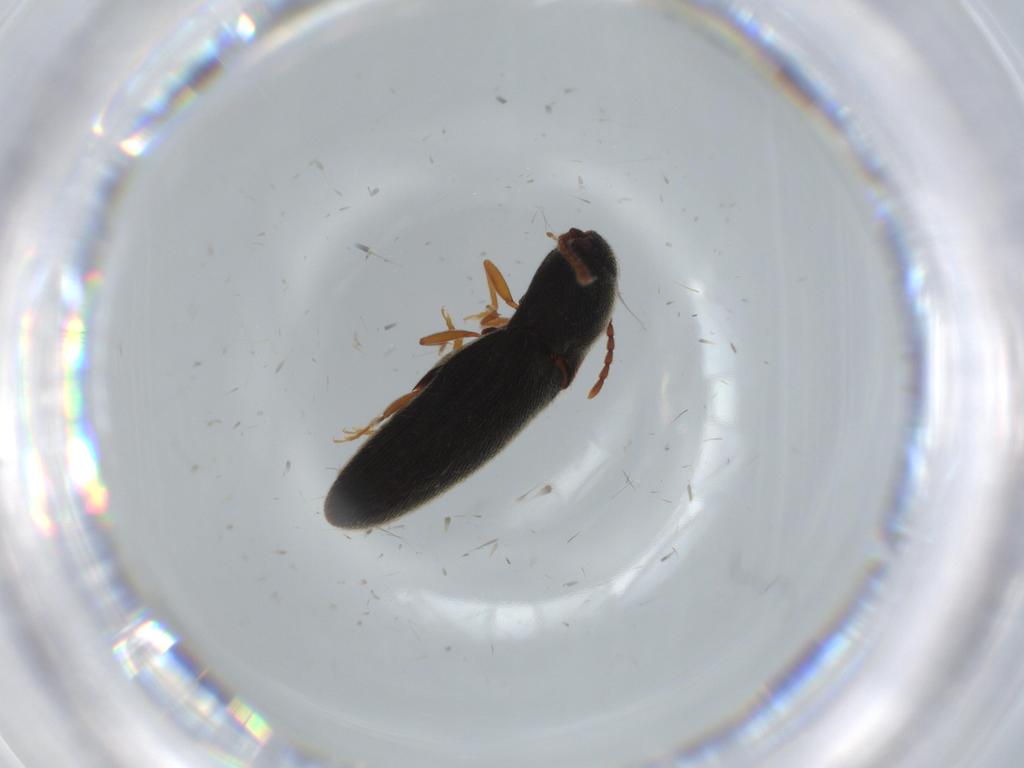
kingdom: Animalia
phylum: Arthropoda
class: Insecta
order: Coleoptera
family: Elateridae
